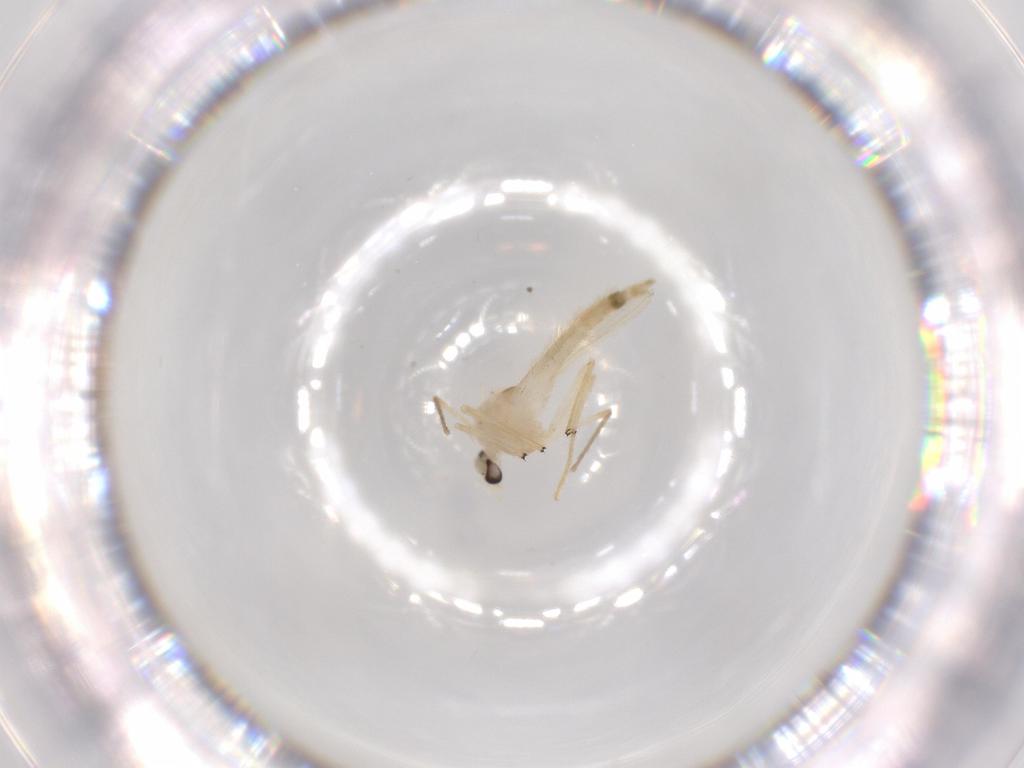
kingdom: Animalia
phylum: Arthropoda
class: Insecta
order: Diptera
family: Chironomidae
